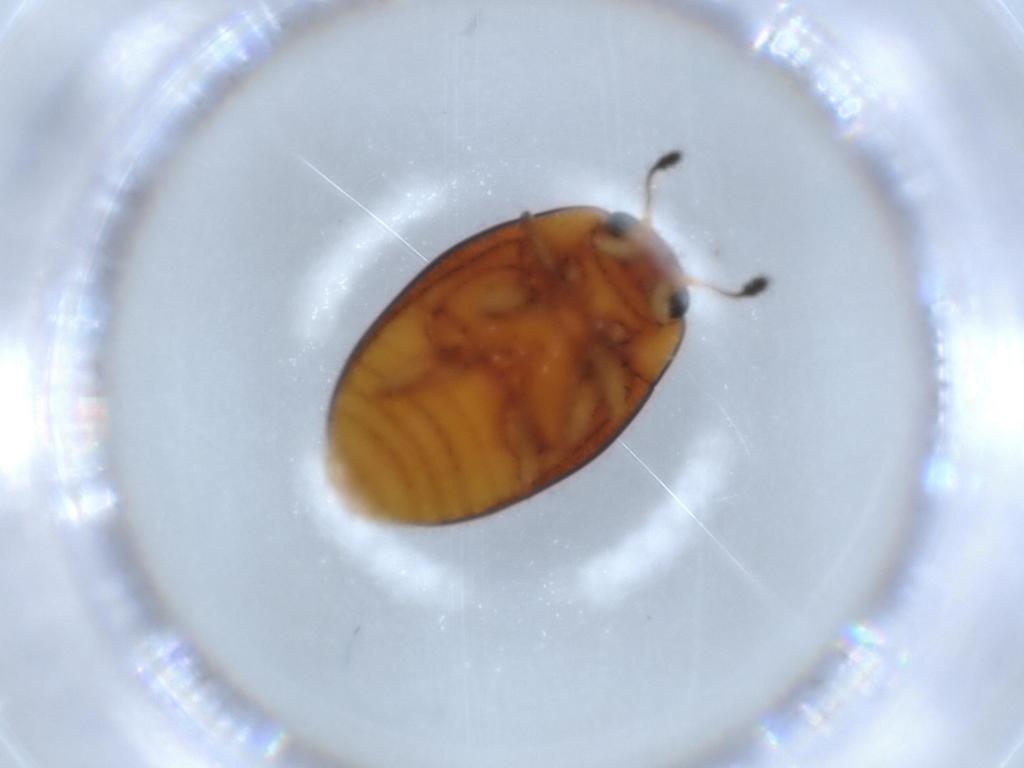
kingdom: Animalia
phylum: Arthropoda
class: Insecta
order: Coleoptera
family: Erotylidae
